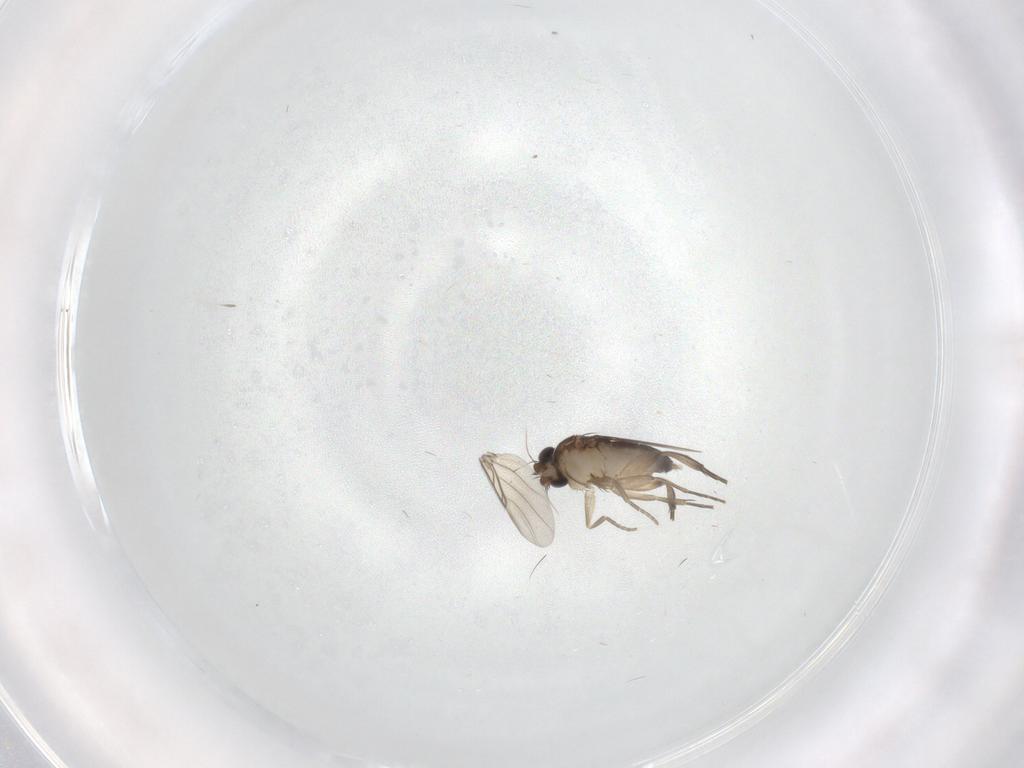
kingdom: Animalia
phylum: Arthropoda
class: Insecta
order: Diptera
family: Phoridae
